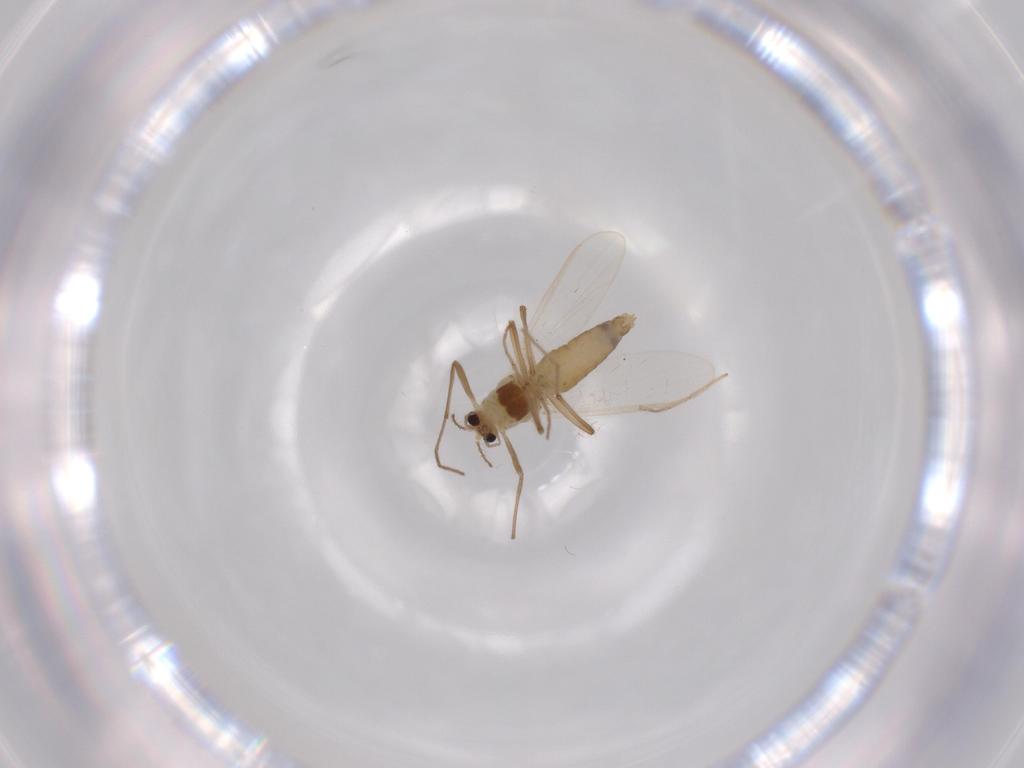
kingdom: Animalia
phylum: Arthropoda
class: Insecta
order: Diptera
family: Chironomidae
